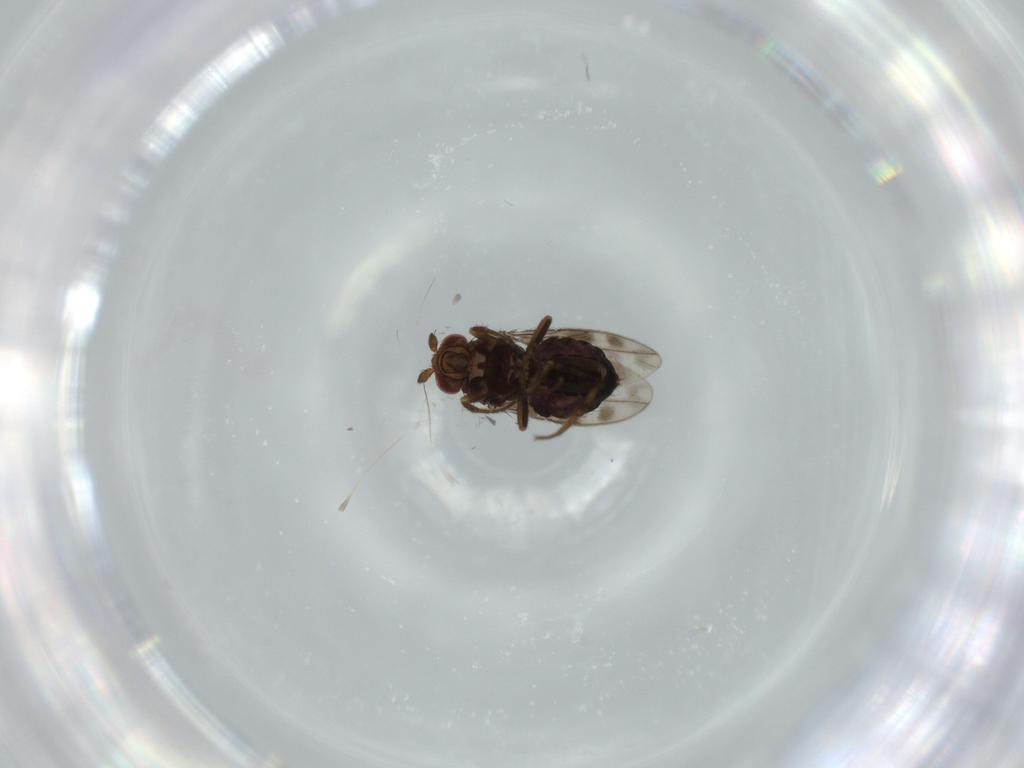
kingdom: Animalia
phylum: Arthropoda
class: Insecta
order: Diptera
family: Sphaeroceridae
